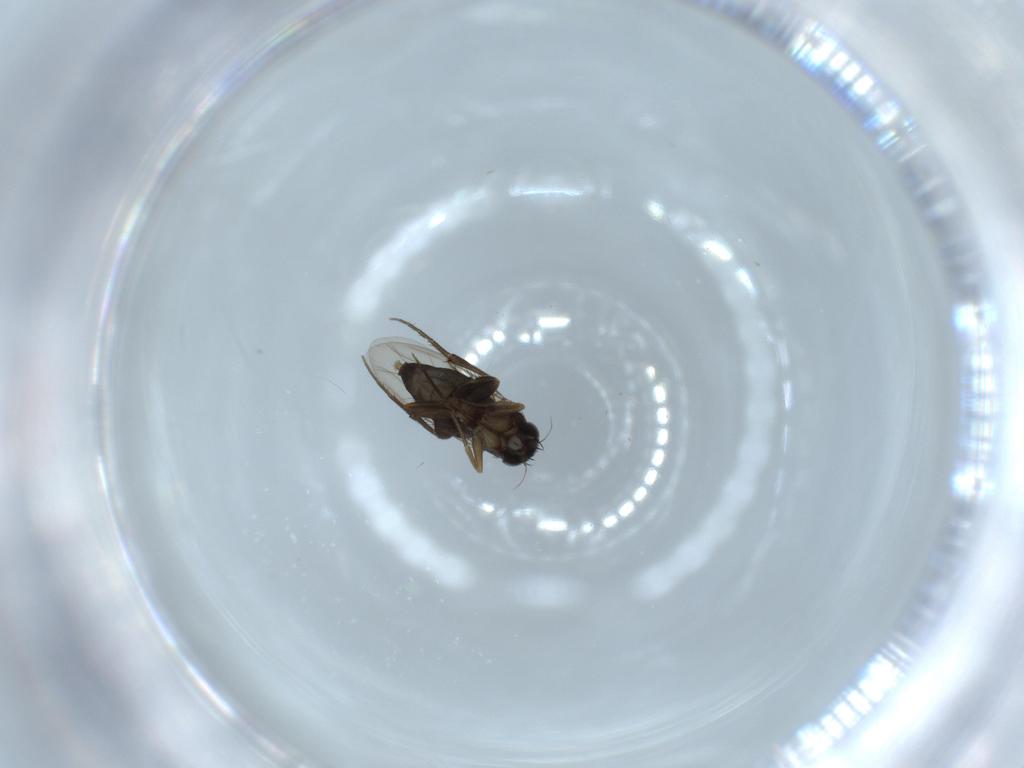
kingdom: Animalia
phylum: Arthropoda
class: Insecta
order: Diptera
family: Phoridae
